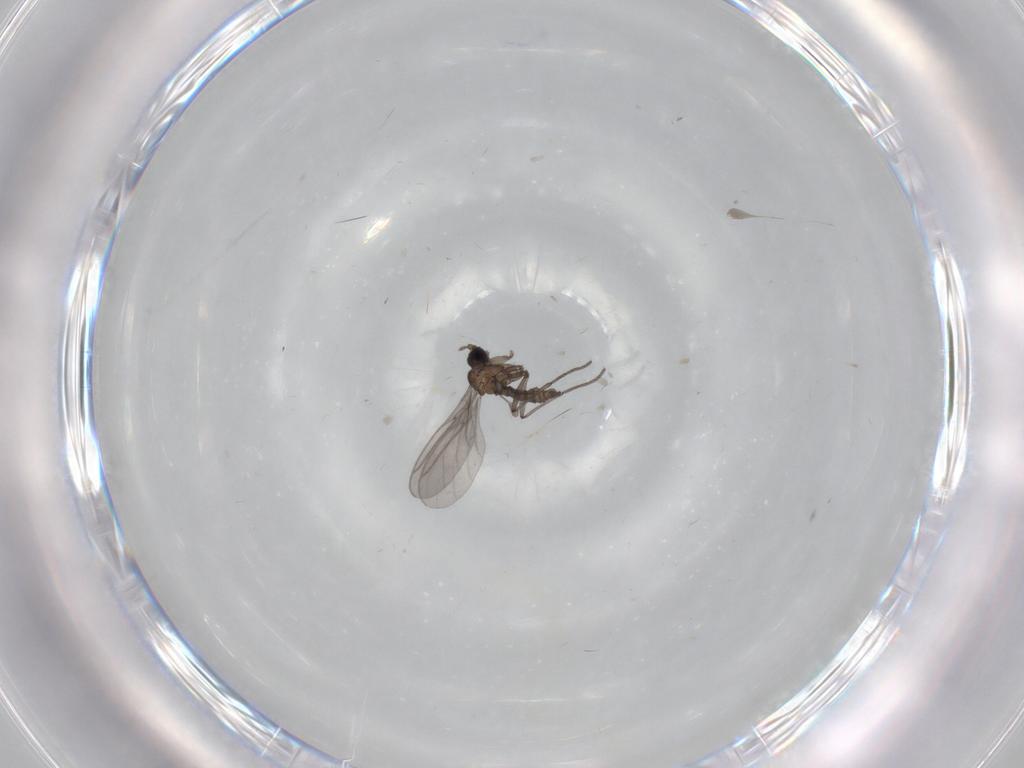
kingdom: Animalia
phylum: Arthropoda
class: Insecta
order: Diptera
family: Sciaridae
